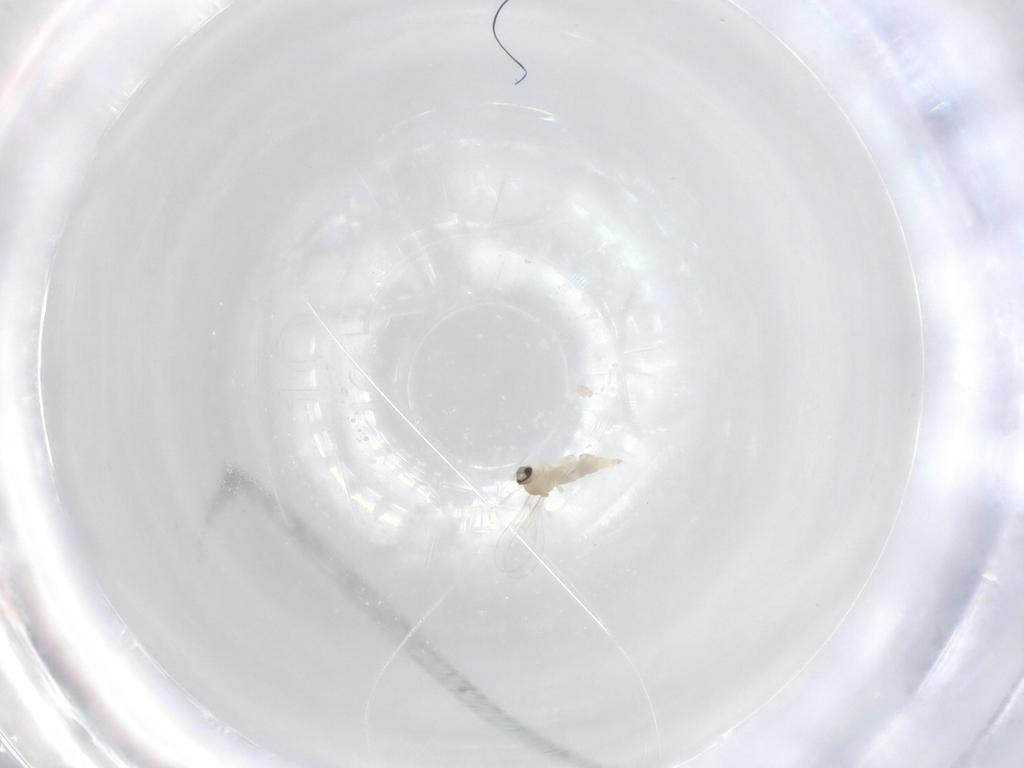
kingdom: Animalia
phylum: Arthropoda
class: Insecta
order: Diptera
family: Cecidomyiidae
